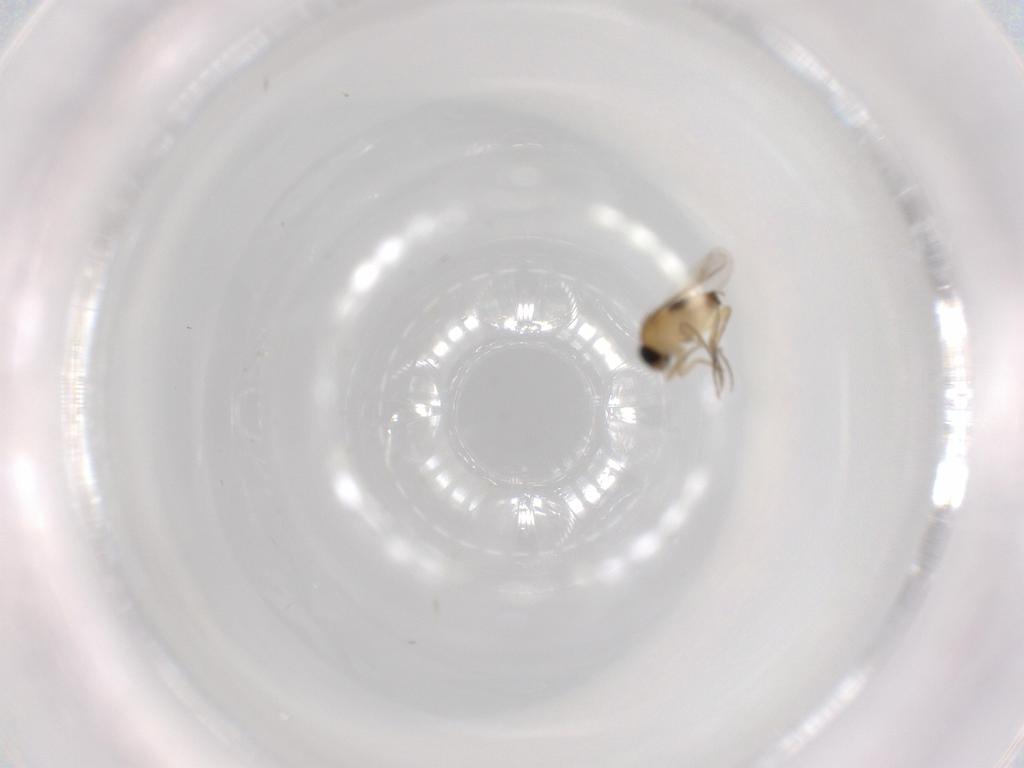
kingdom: Animalia
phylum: Arthropoda
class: Insecta
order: Diptera
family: Phoridae
